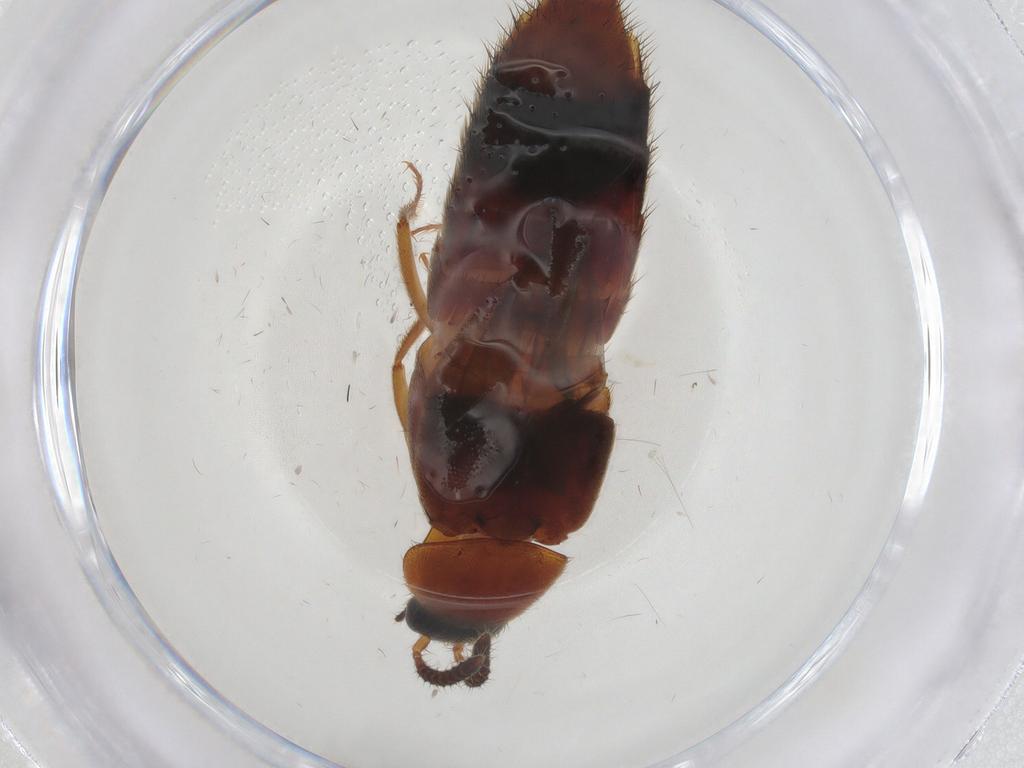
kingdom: Animalia
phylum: Arthropoda
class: Insecta
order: Coleoptera
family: Staphylinidae
